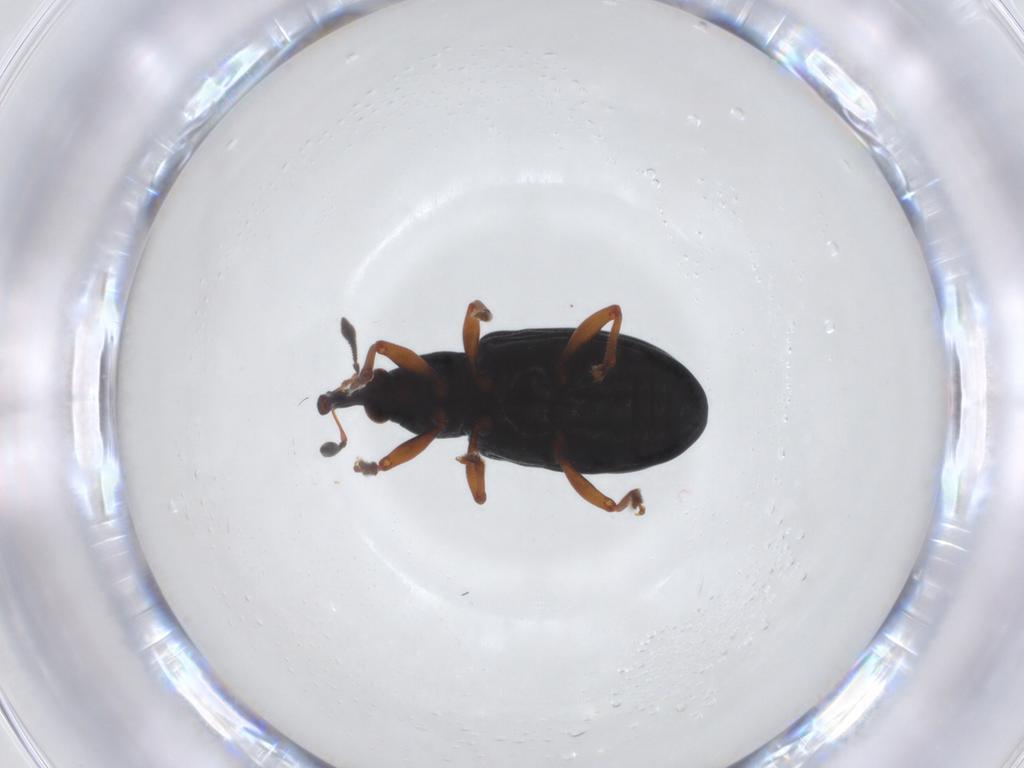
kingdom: Animalia
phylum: Arthropoda
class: Insecta
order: Coleoptera
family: Curculionidae
